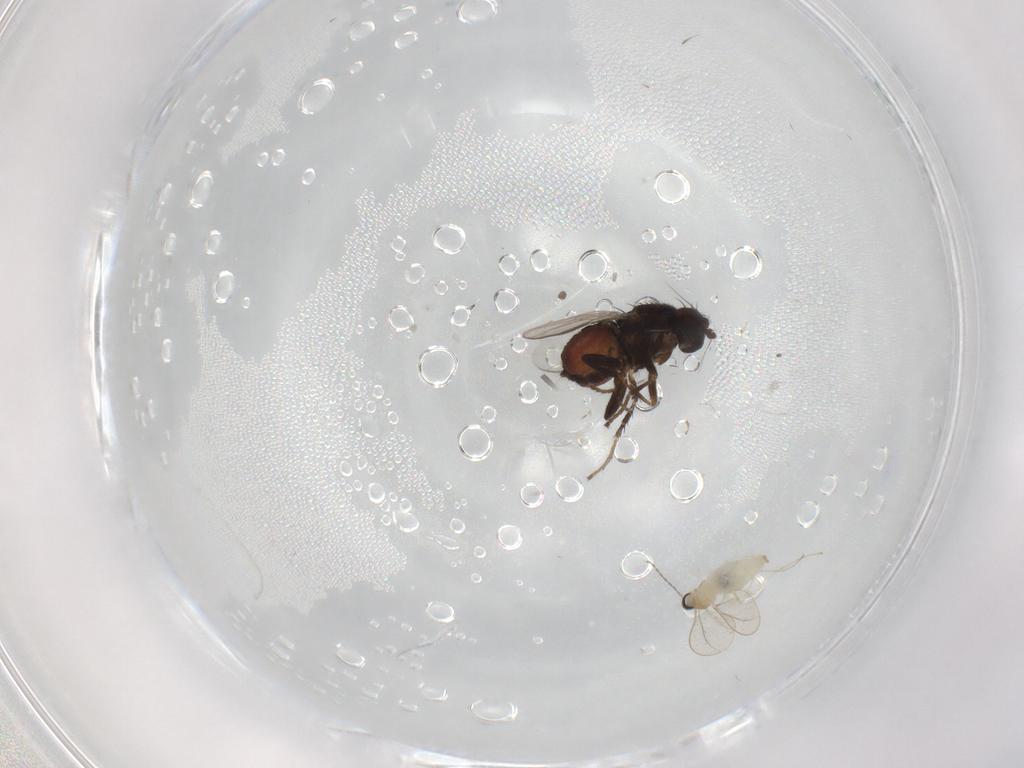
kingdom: Animalia
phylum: Arthropoda
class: Insecta
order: Diptera
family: Sphaeroceridae
